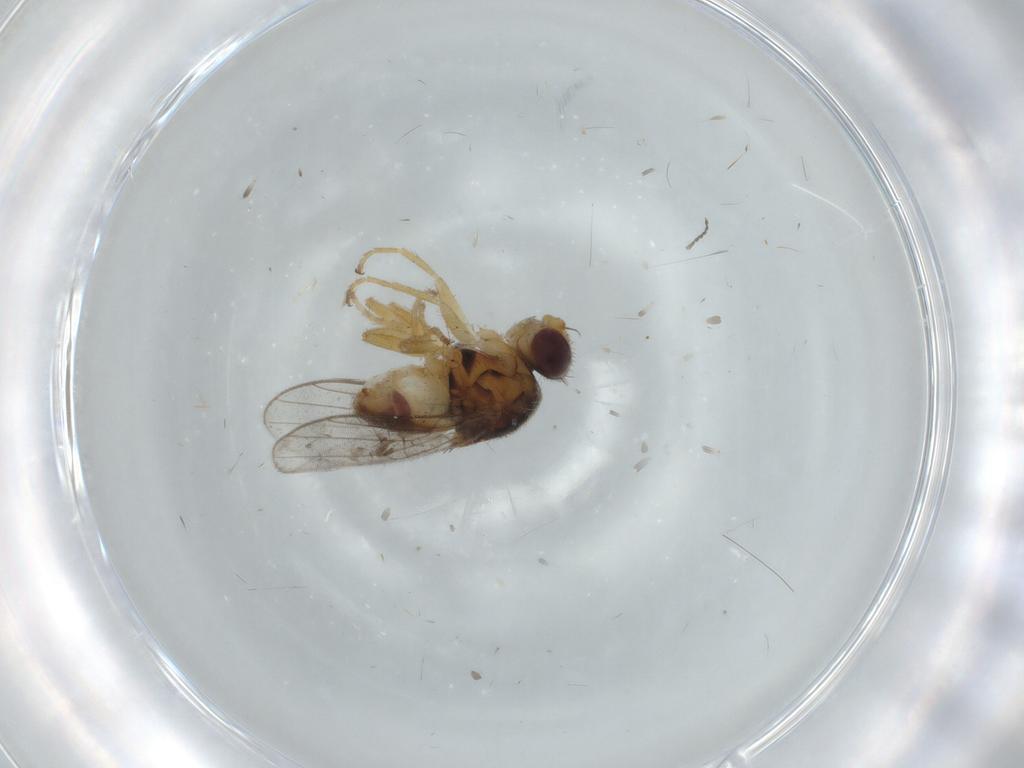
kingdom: Animalia
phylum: Arthropoda
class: Insecta
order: Diptera
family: Chloropidae
